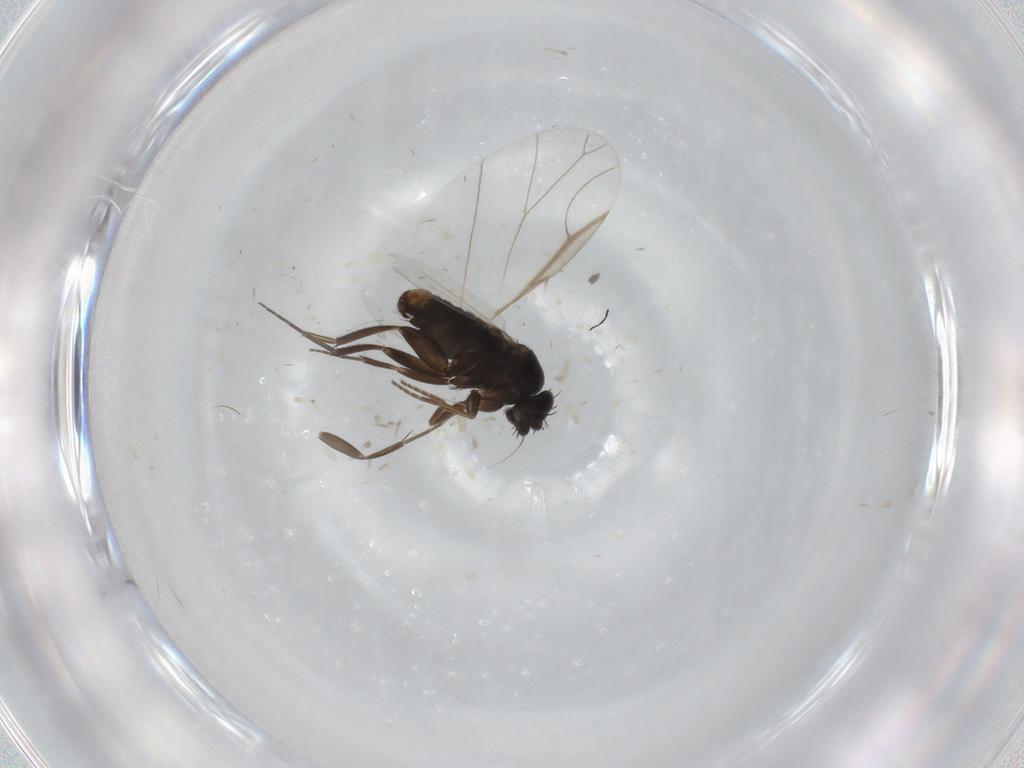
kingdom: Animalia
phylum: Arthropoda
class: Insecta
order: Diptera
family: Phoridae
